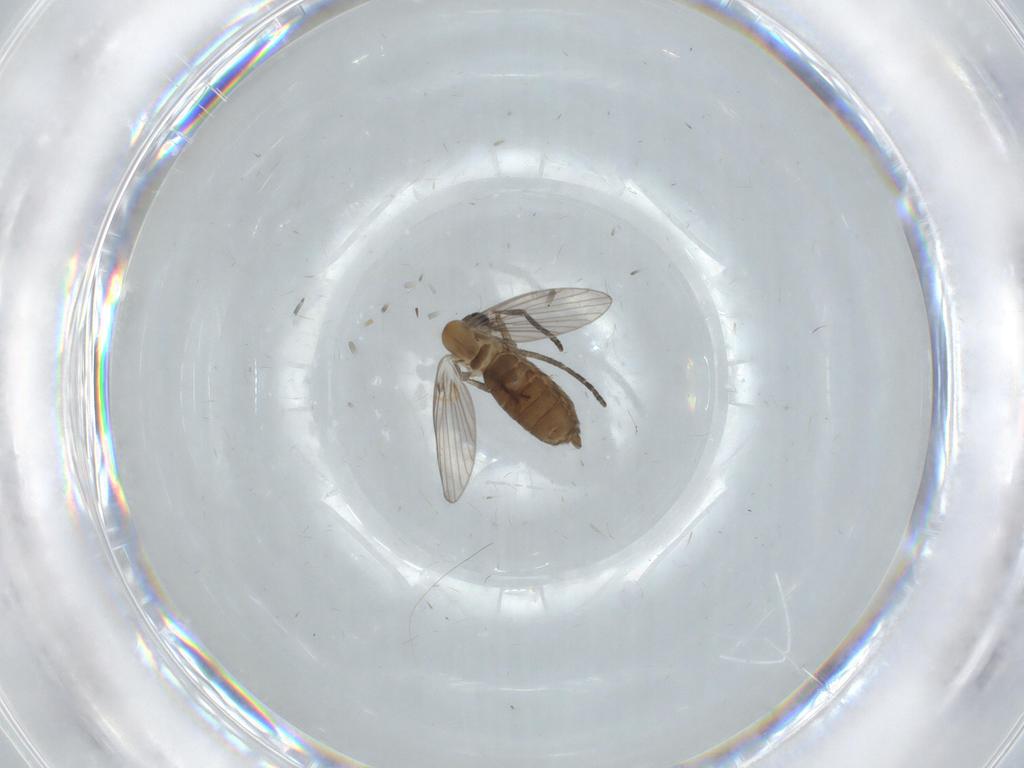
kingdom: Animalia
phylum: Arthropoda
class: Insecta
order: Diptera
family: Psychodidae
